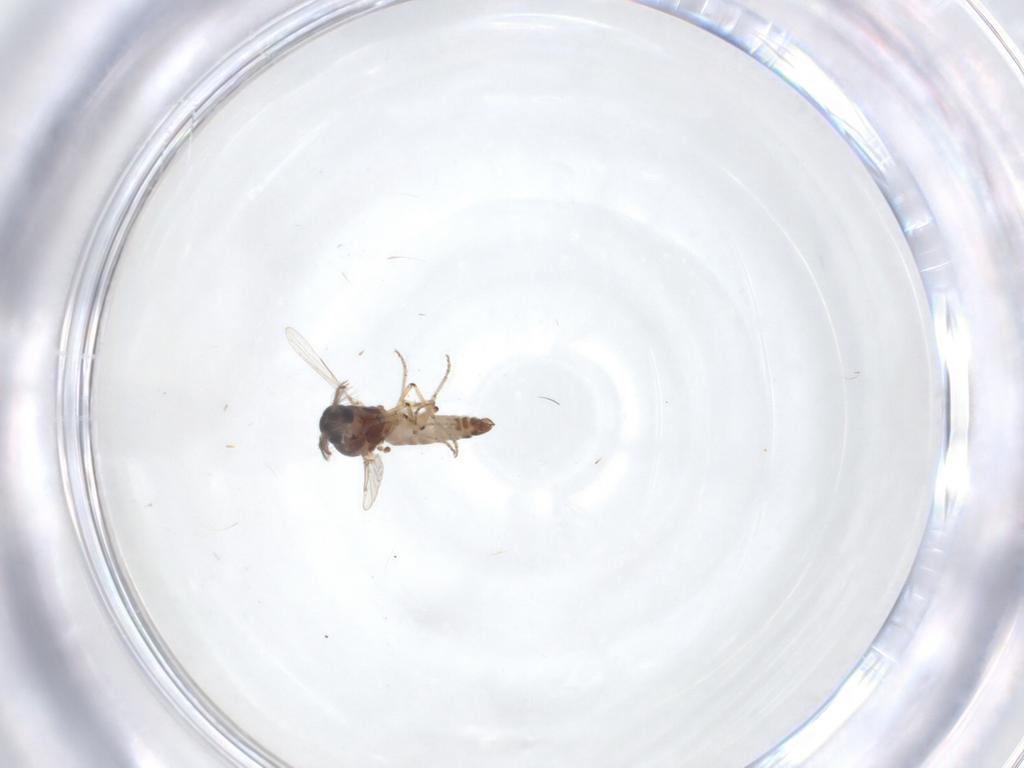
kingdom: Animalia
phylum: Arthropoda
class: Insecta
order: Diptera
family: Ceratopogonidae
